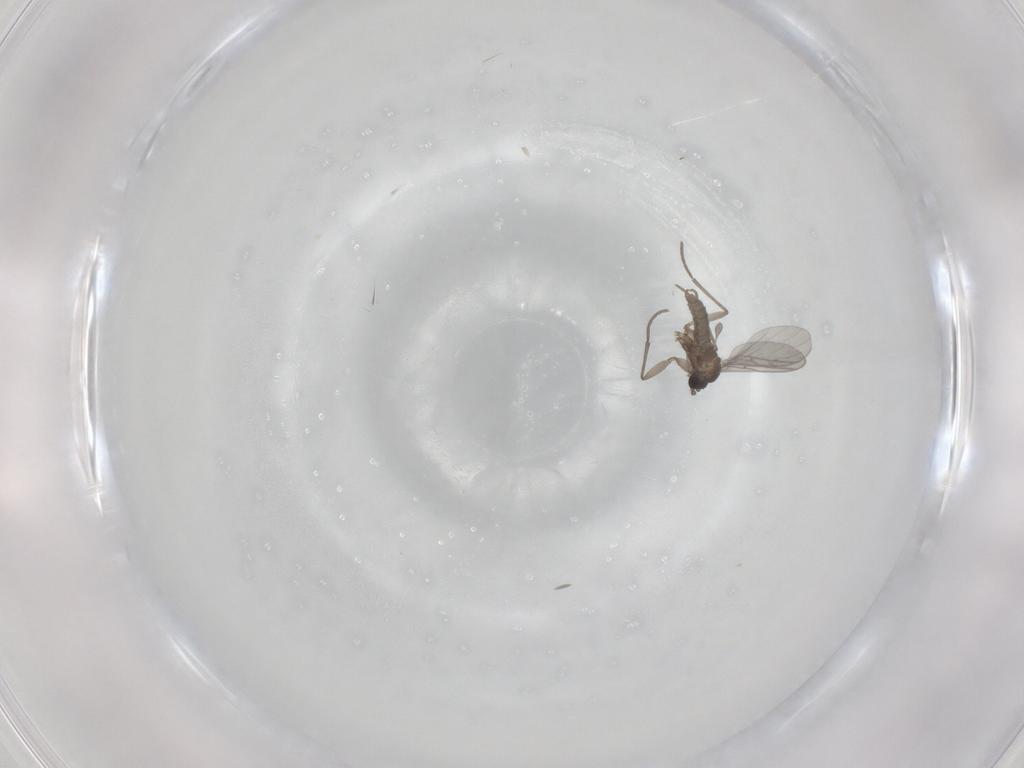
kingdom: Animalia
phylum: Arthropoda
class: Insecta
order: Diptera
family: Sciaridae
